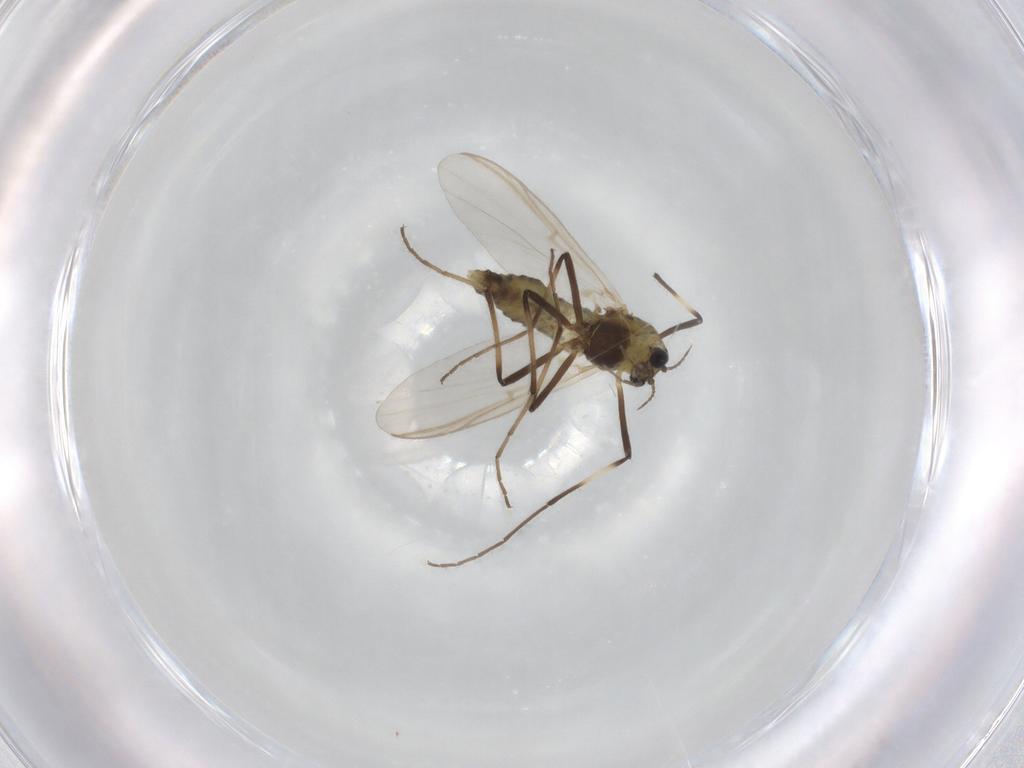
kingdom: Animalia
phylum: Arthropoda
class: Insecta
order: Diptera
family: Chironomidae
